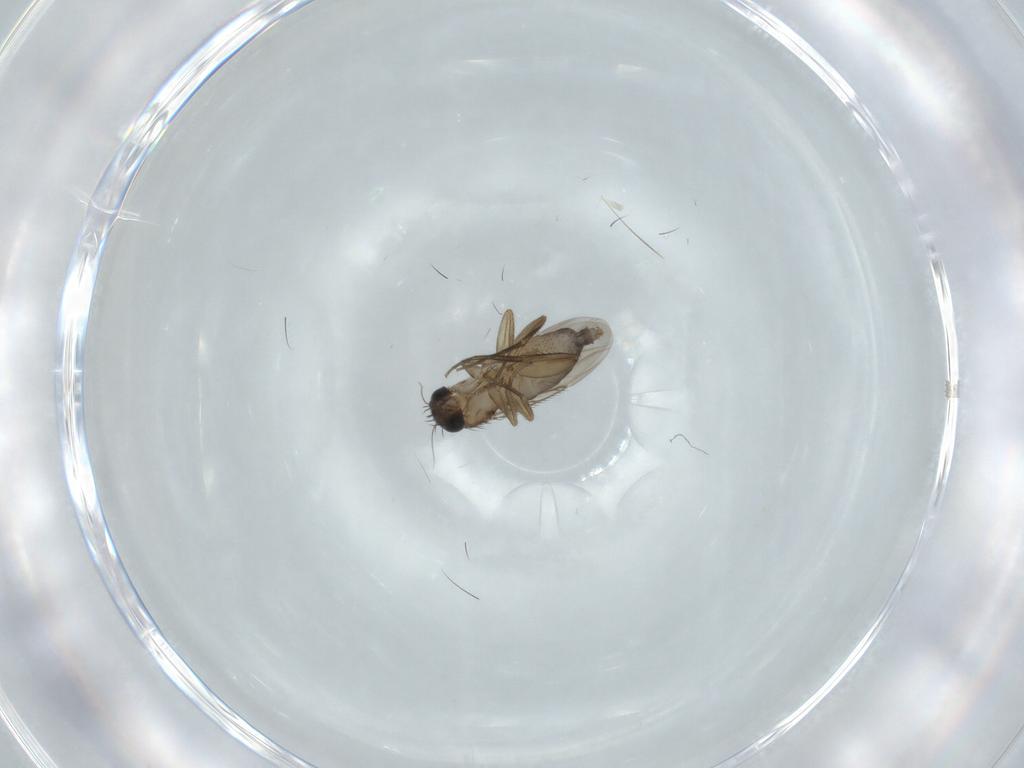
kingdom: Animalia
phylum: Arthropoda
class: Insecta
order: Diptera
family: Phoridae
